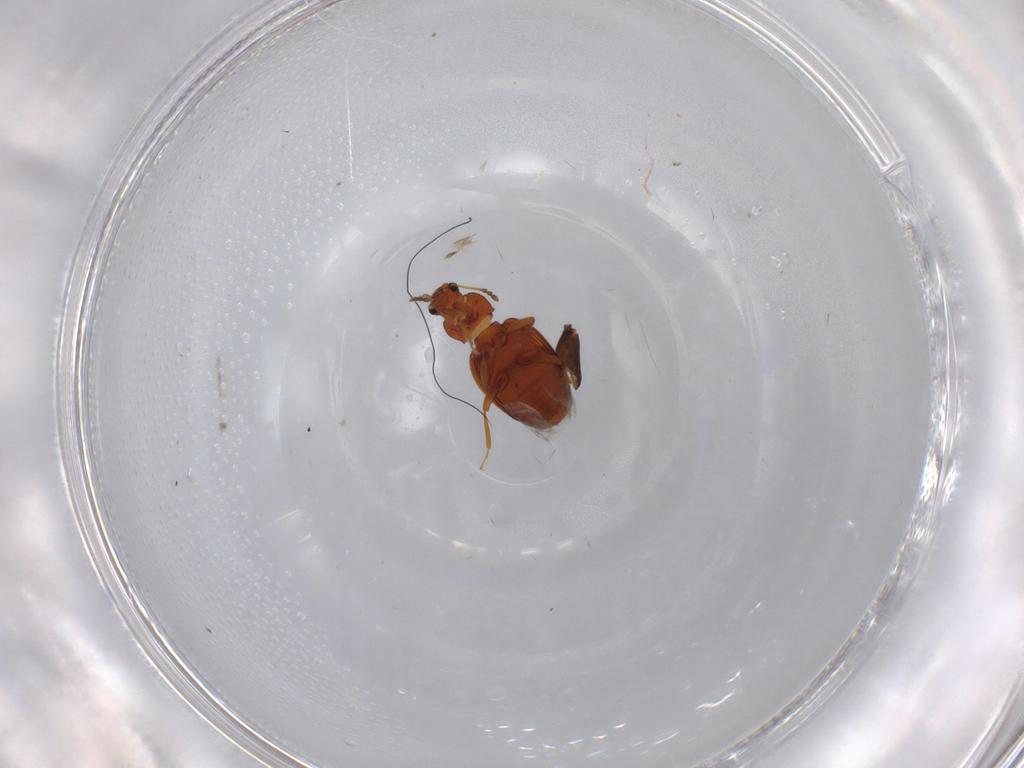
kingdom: Animalia
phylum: Arthropoda
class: Insecta
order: Coleoptera
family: Latridiidae
